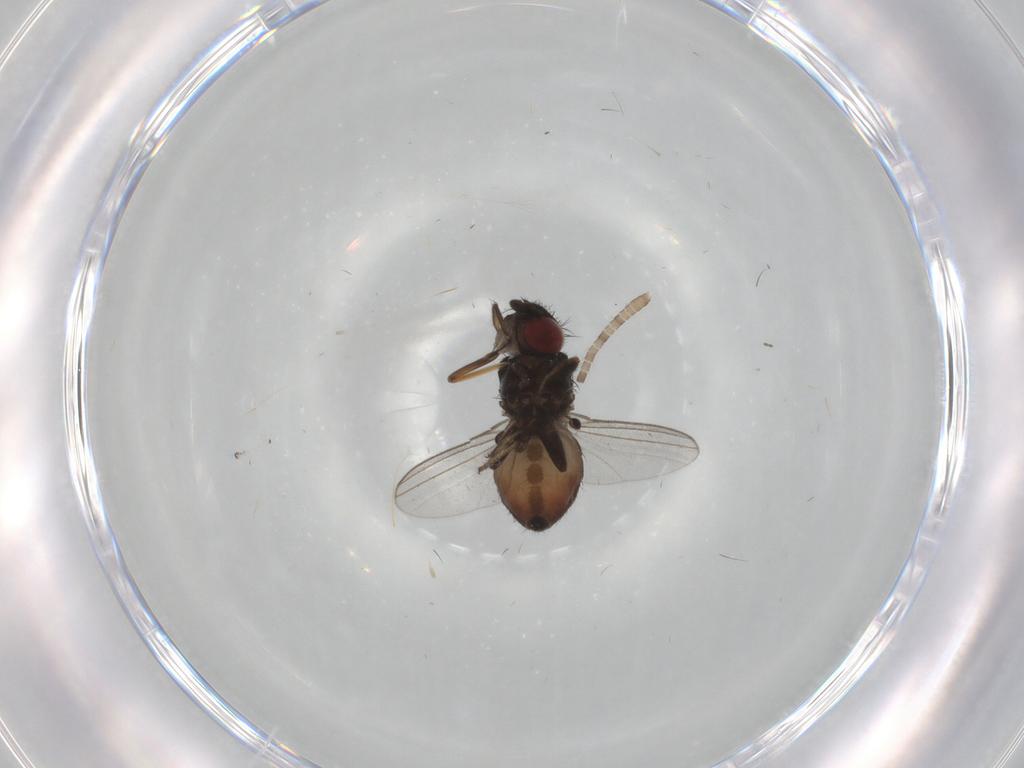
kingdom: Animalia
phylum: Arthropoda
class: Insecta
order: Diptera
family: Milichiidae
